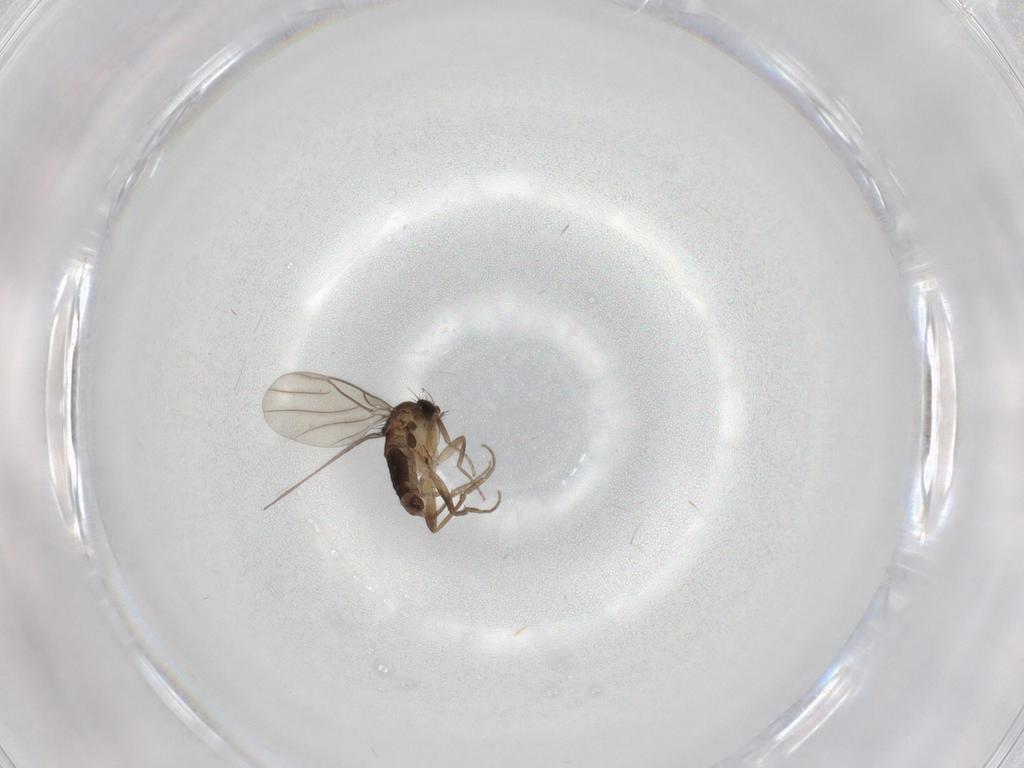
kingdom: Animalia
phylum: Arthropoda
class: Insecta
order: Diptera
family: Phoridae
